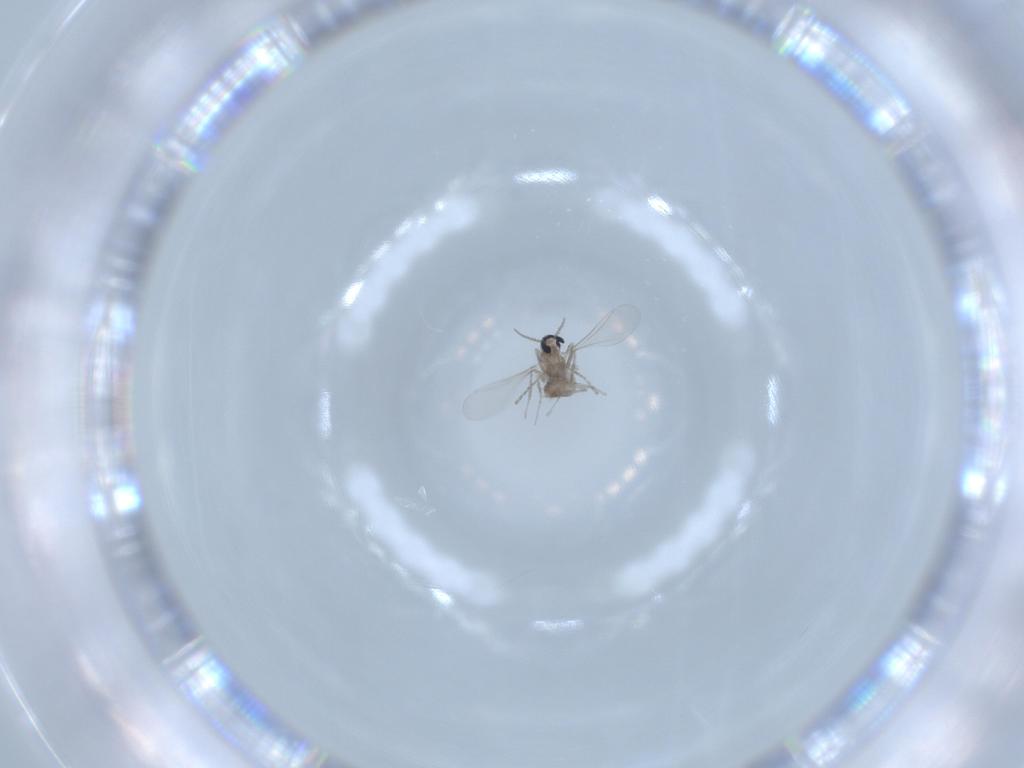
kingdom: Animalia
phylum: Arthropoda
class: Insecta
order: Diptera
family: Cecidomyiidae
